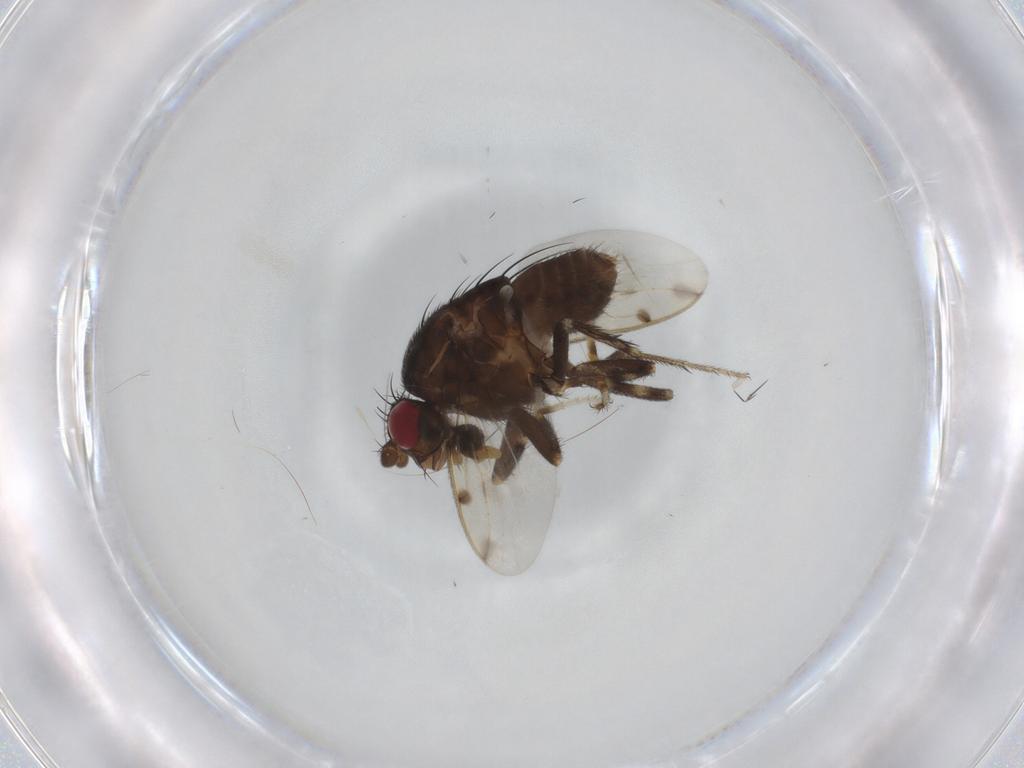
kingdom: Animalia
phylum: Arthropoda
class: Insecta
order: Diptera
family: Sphaeroceridae
